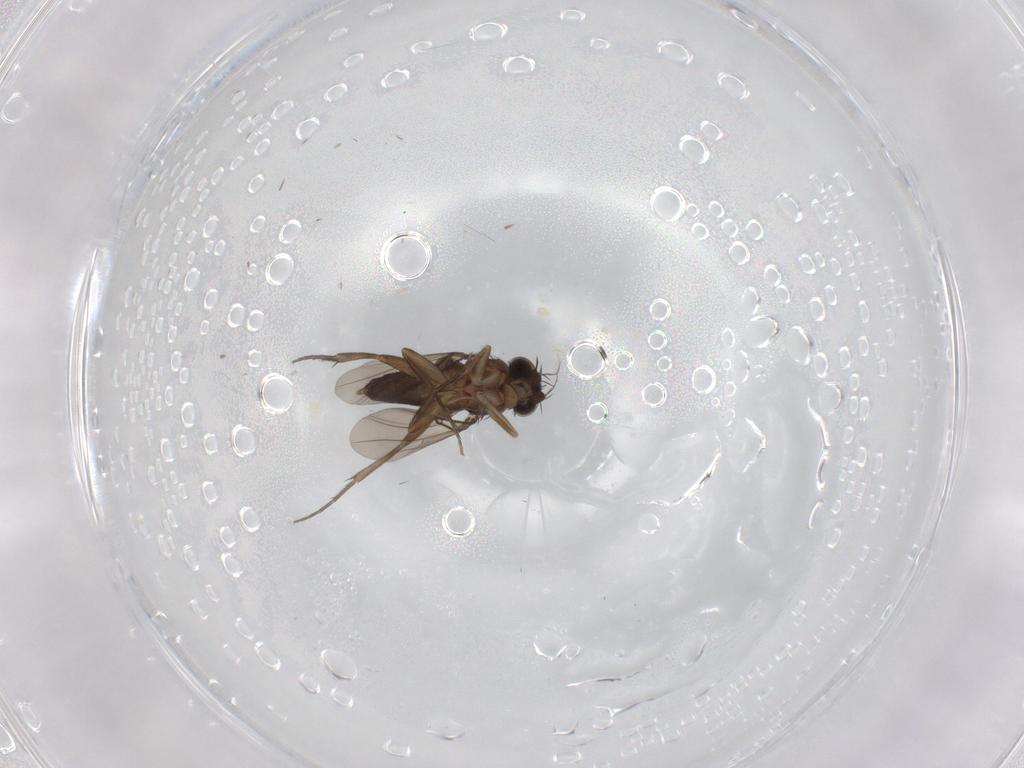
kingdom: Animalia
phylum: Arthropoda
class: Insecta
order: Diptera
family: Phoridae
